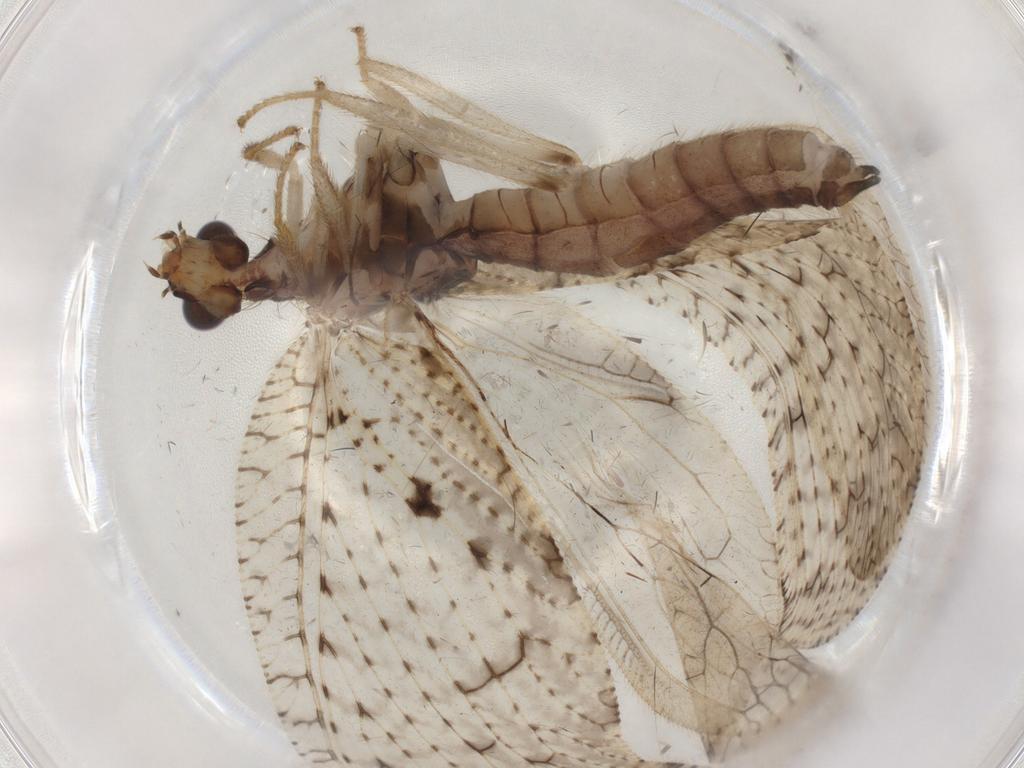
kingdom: Animalia
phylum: Arthropoda
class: Insecta
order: Neuroptera
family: Hemerobiidae
